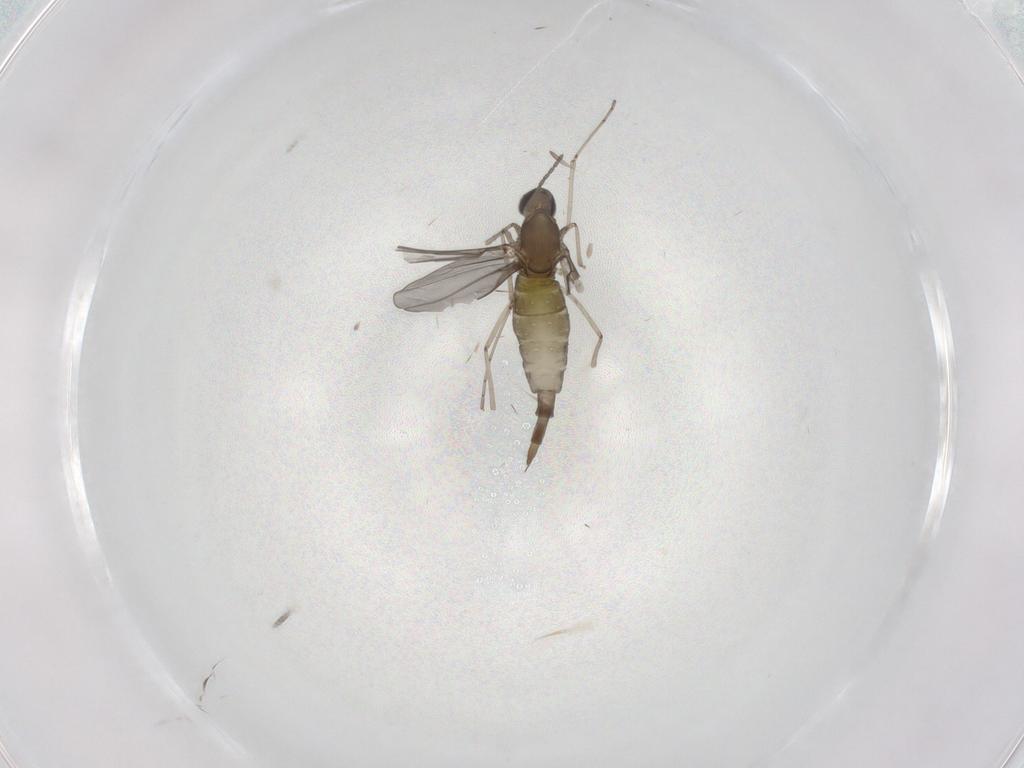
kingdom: Animalia
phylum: Arthropoda
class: Insecta
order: Diptera
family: Cecidomyiidae
